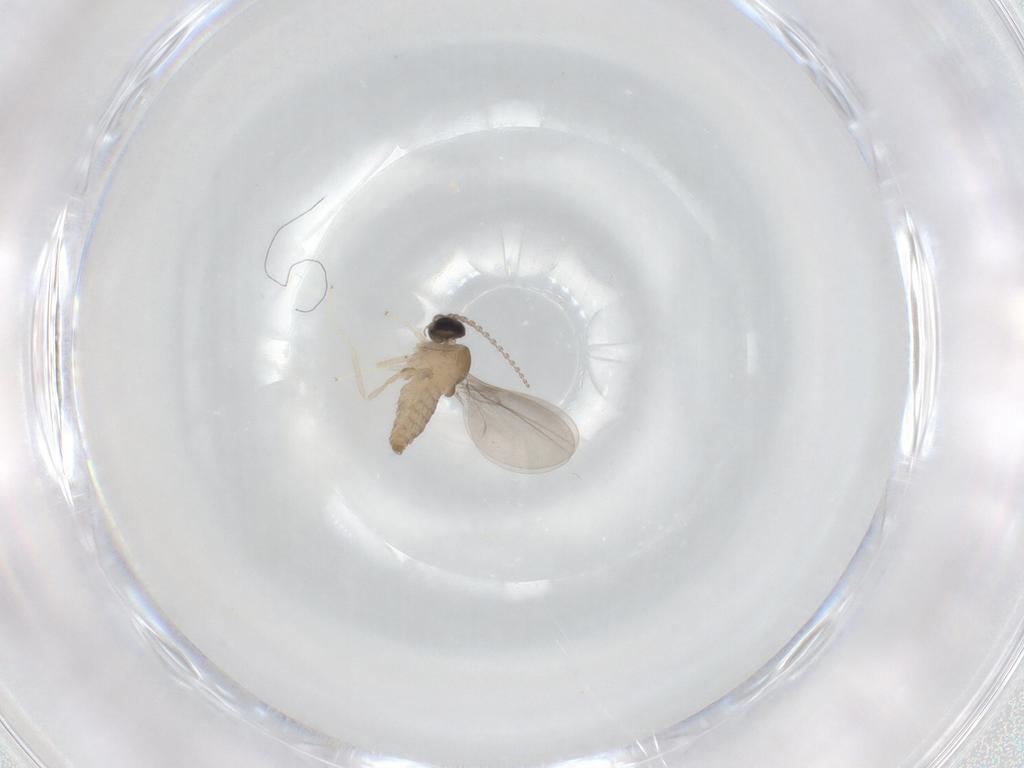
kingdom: Animalia
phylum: Arthropoda
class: Insecta
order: Diptera
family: Cecidomyiidae
